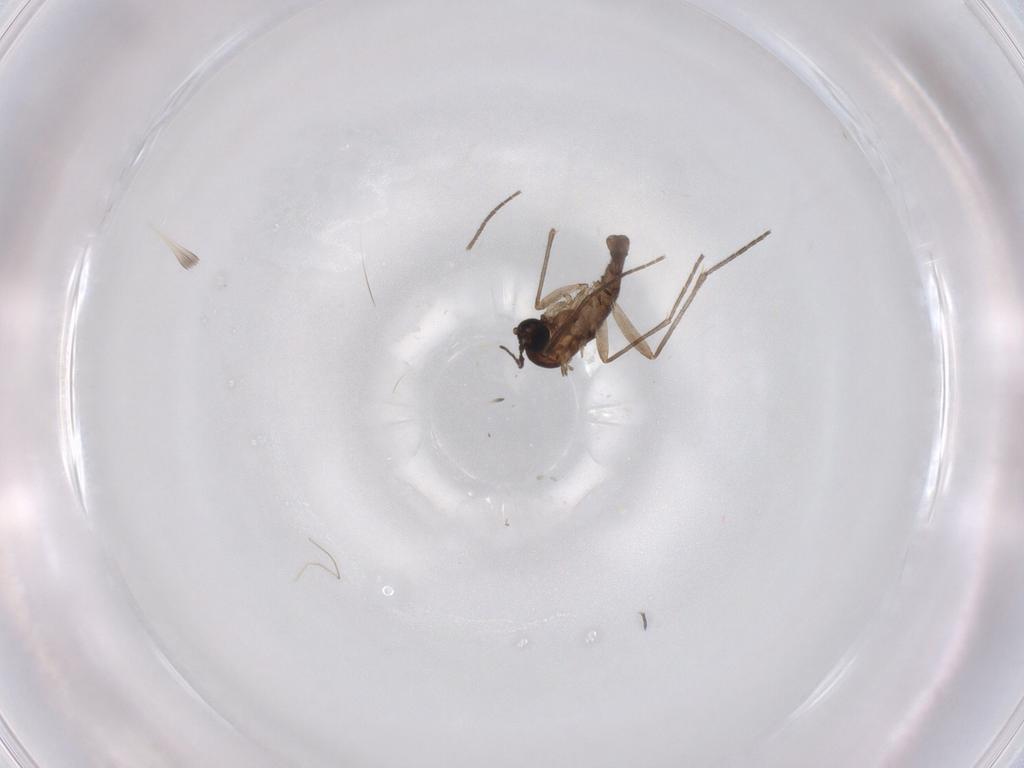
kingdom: Animalia
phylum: Arthropoda
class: Insecta
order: Diptera
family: Sciaridae
